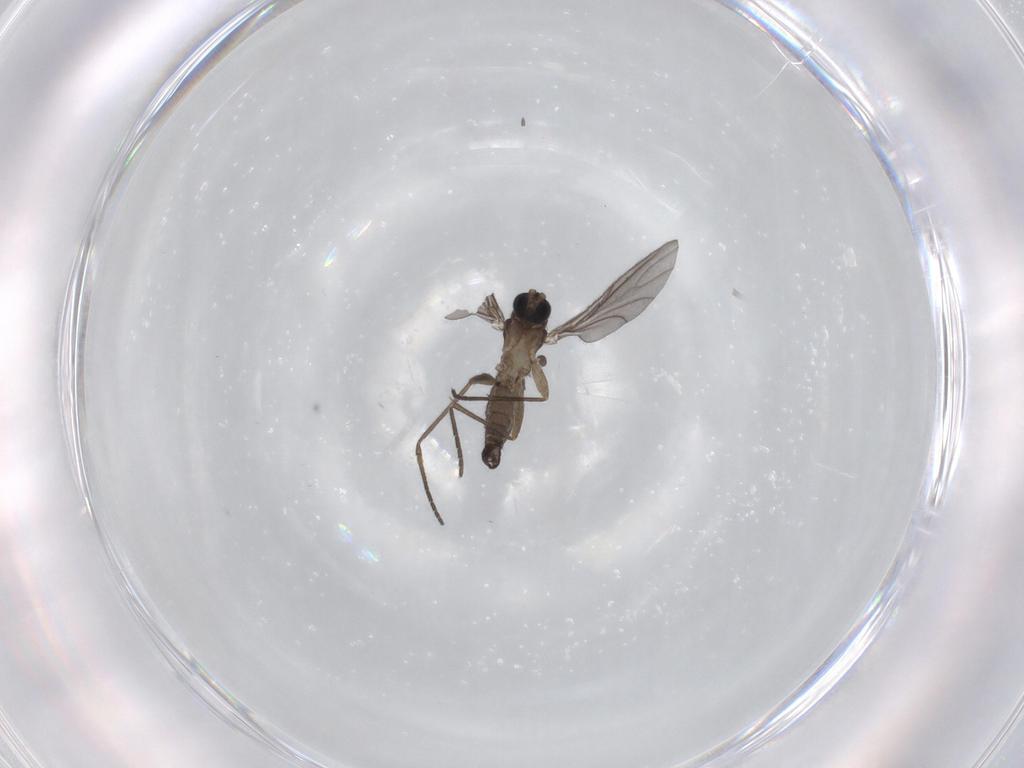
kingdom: Animalia
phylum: Arthropoda
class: Insecta
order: Diptera
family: Sciaridae
